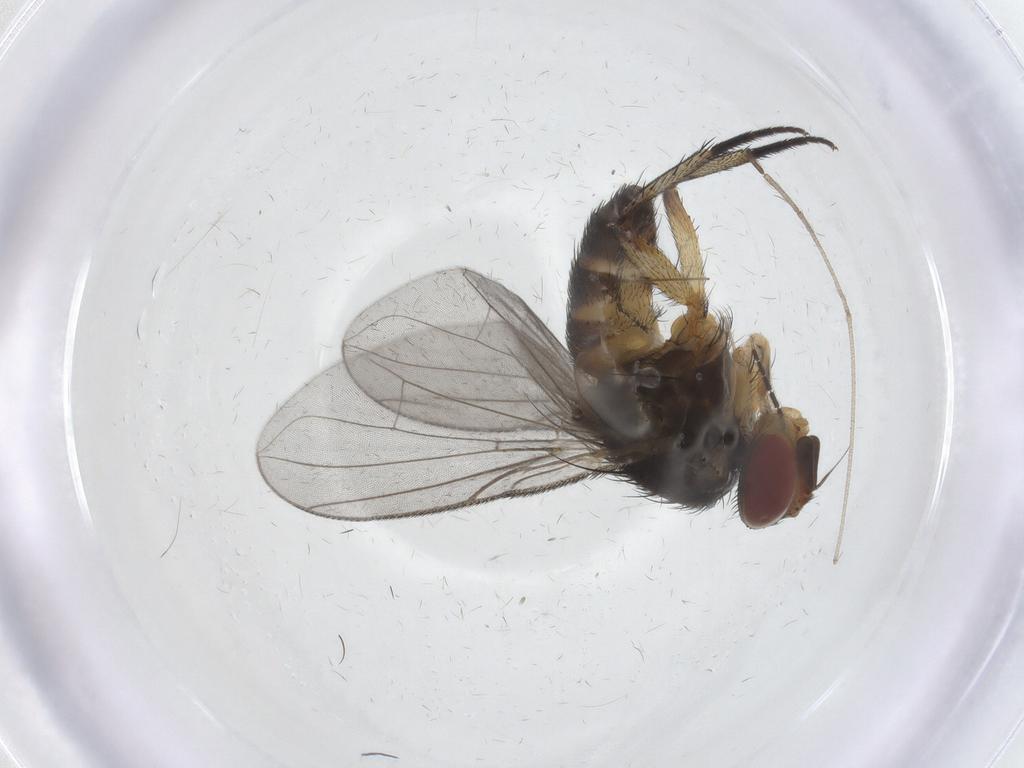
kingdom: Animalia
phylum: Arthropoda
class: Insecta
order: Diptera
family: Tachinidae
